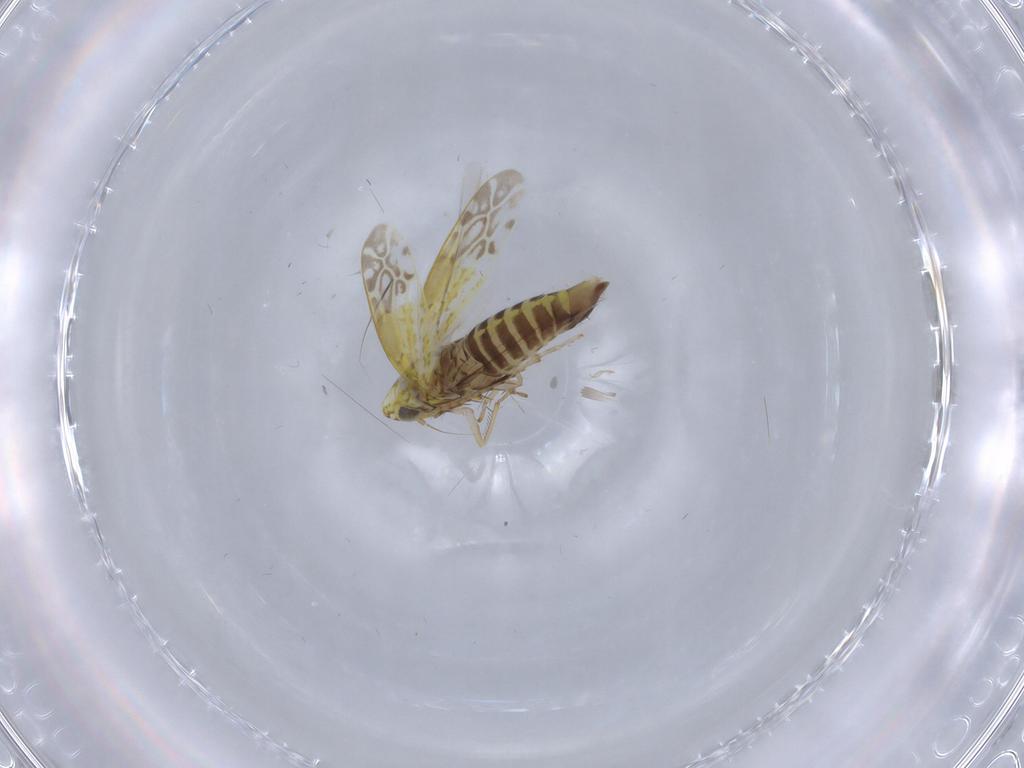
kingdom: Animalia
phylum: Arthropoda
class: Insecta
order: Hemiptera
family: Cicadellidae
